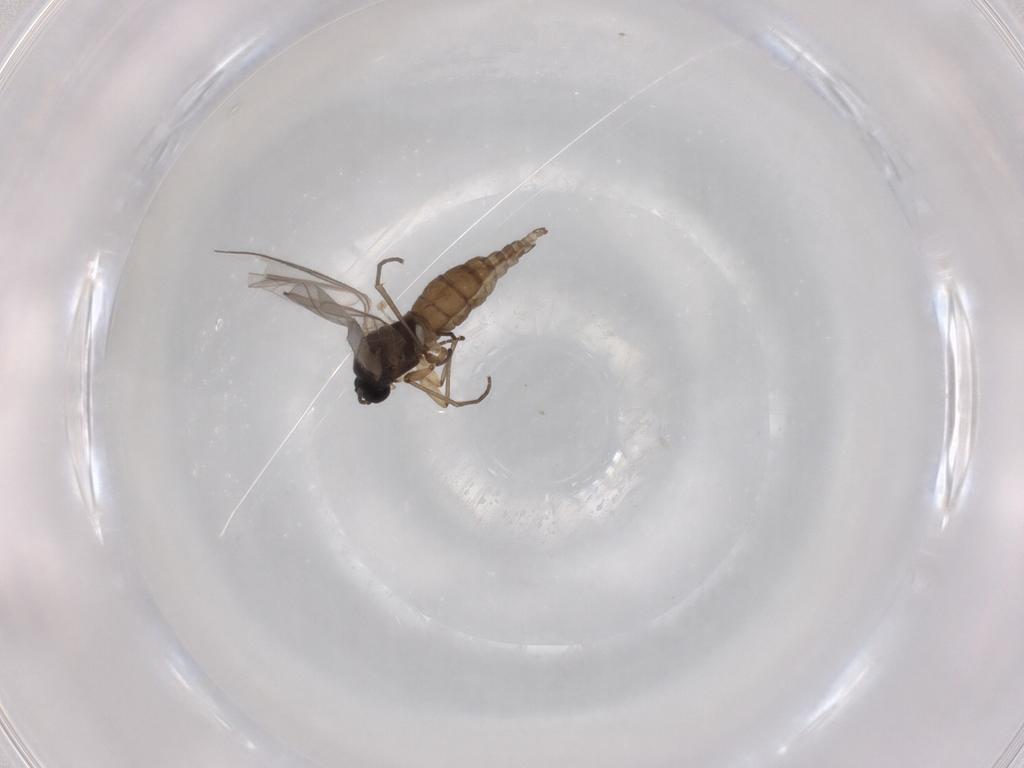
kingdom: Animalia
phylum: Arthropoda
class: Insecta
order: Diptera
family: Sciaridae
